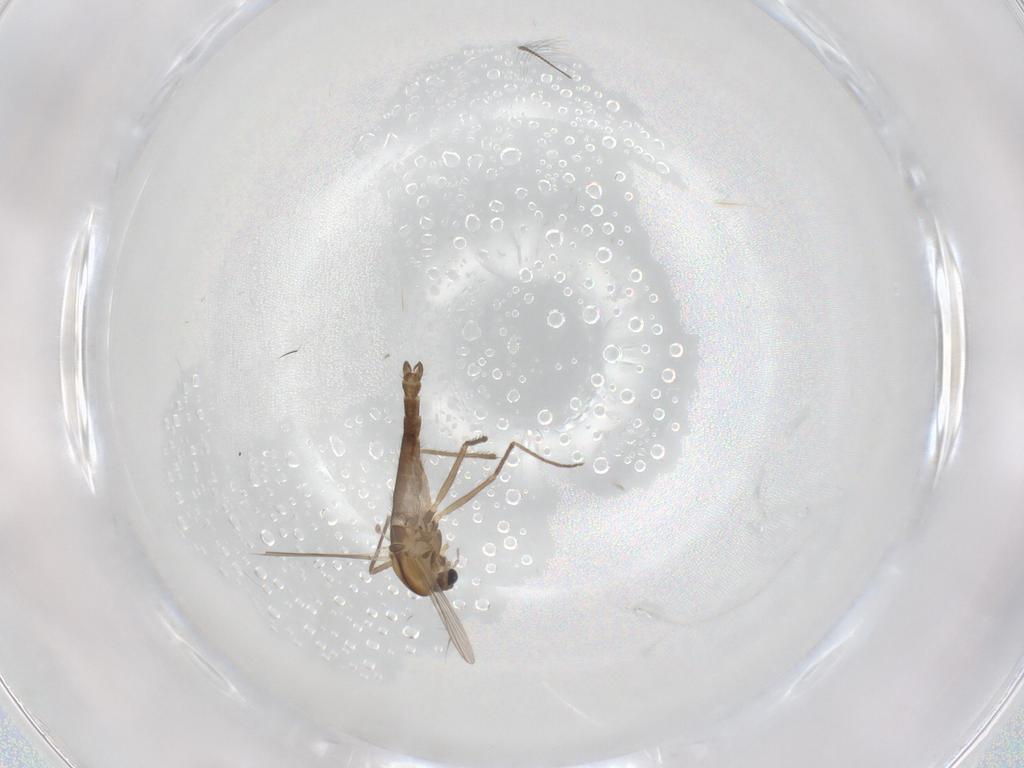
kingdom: Animalia
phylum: Arthropoda
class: Insecta
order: Diptera
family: Chironomidae
